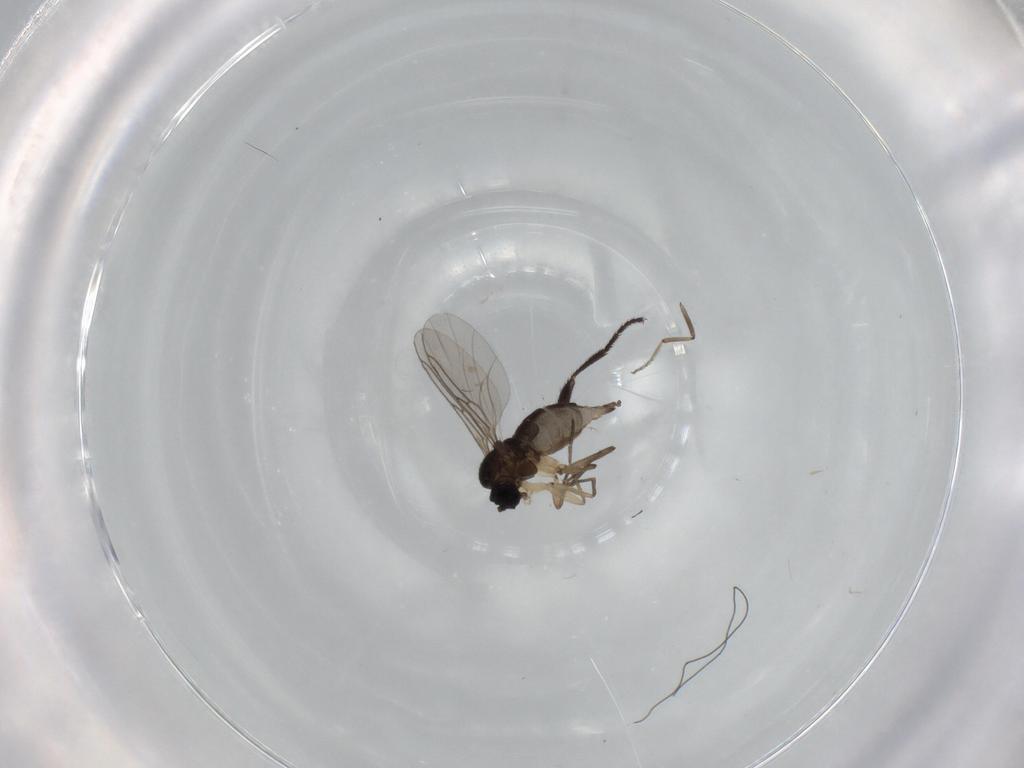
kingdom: Animalia
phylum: Arthropoda
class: Insecta
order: Diptera
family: Sciaridae
